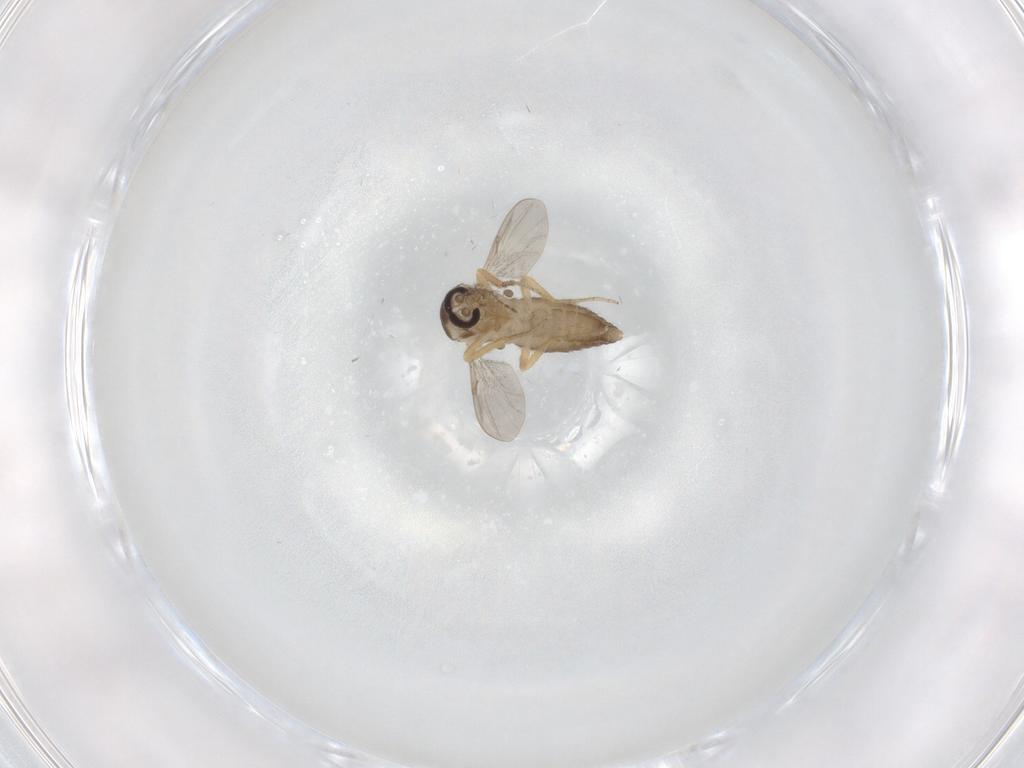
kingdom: Animalia
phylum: Arthropoda
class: Insecta
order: Diptera
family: Ceratopogonidae
